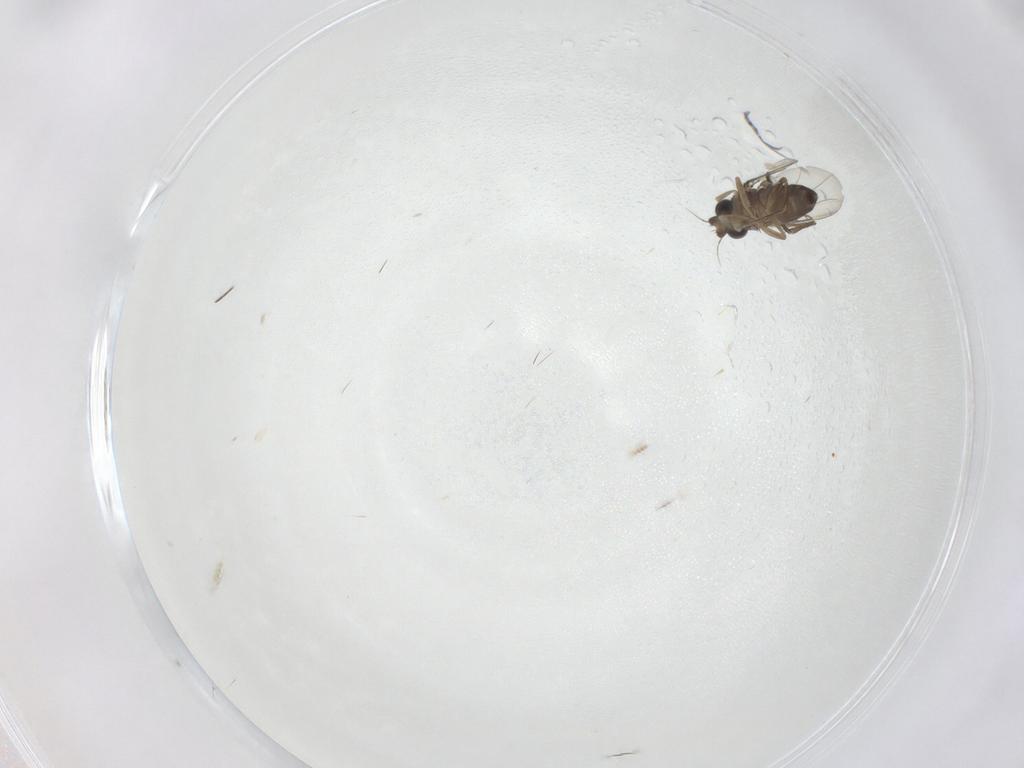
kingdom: Animalia
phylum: Arthropoda
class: Insecta
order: Diptera
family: Phoridae
